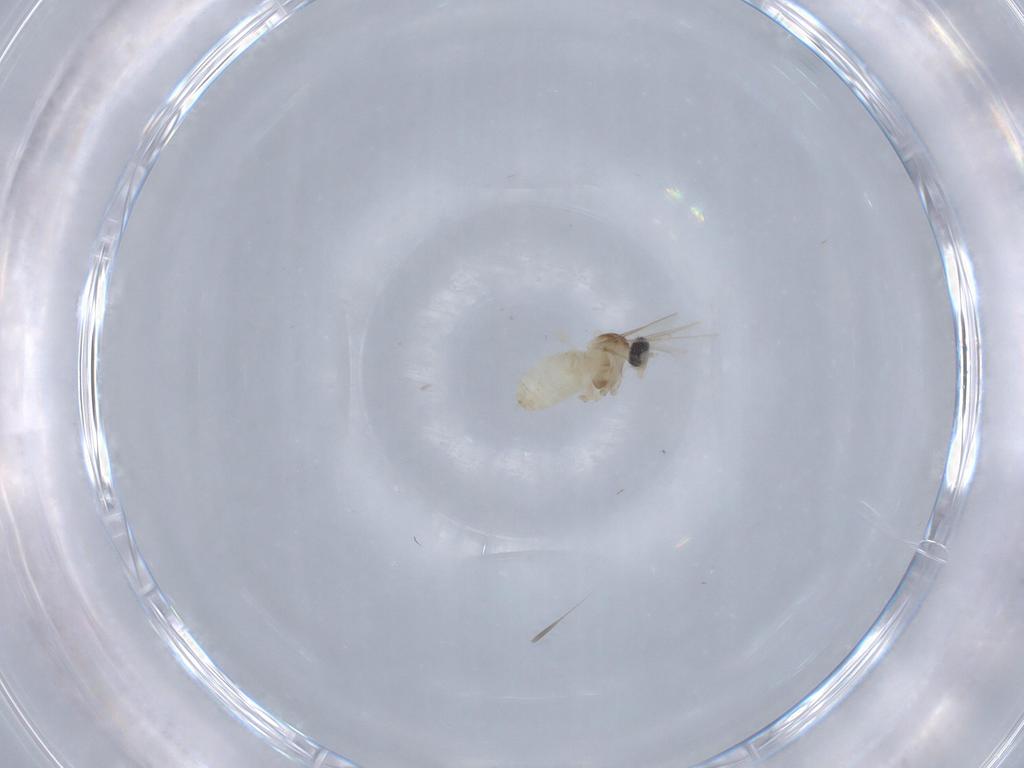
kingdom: Animalia
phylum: Arthropoda
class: Insecta
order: Diptera
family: Cecidomyiidae
